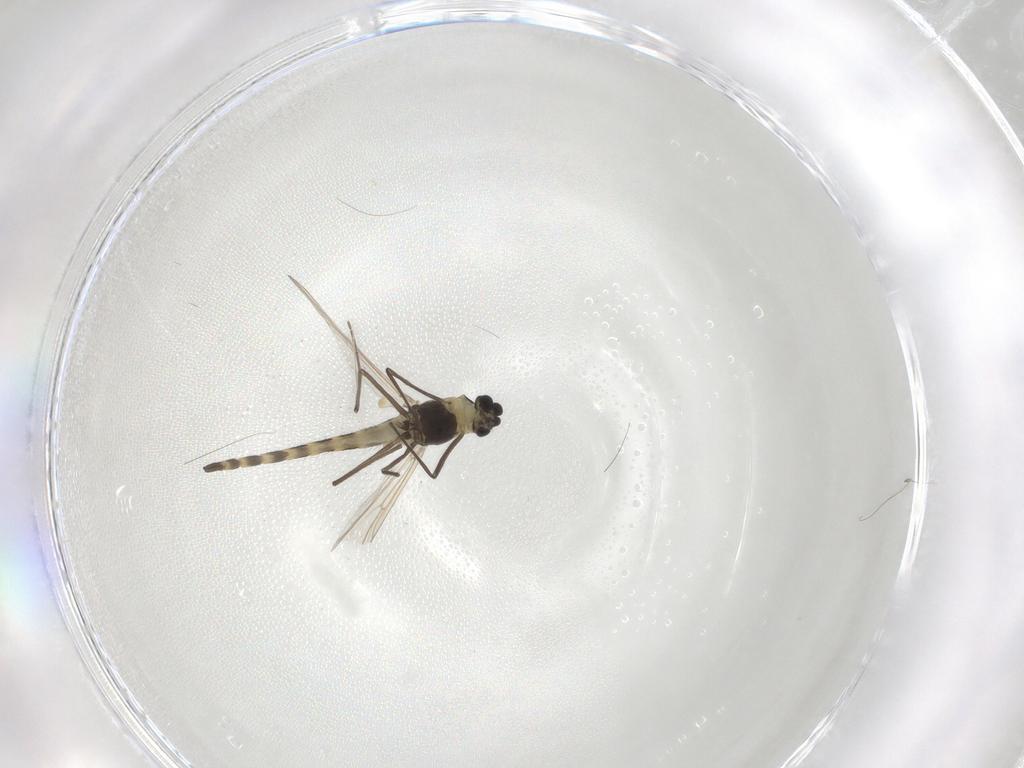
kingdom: Animalia
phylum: Arthropoda
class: Insecta
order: Diptera
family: Chironomidae
